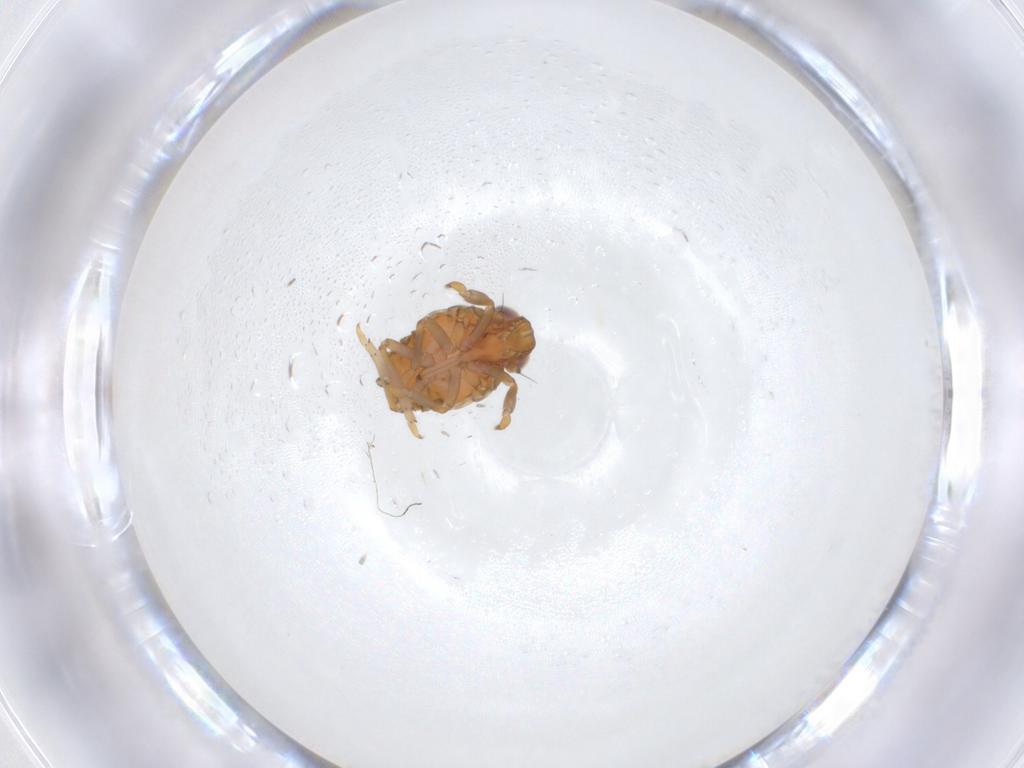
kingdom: Animalia
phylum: Arthropoda
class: Insecta
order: Hemiptera
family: Issidae
